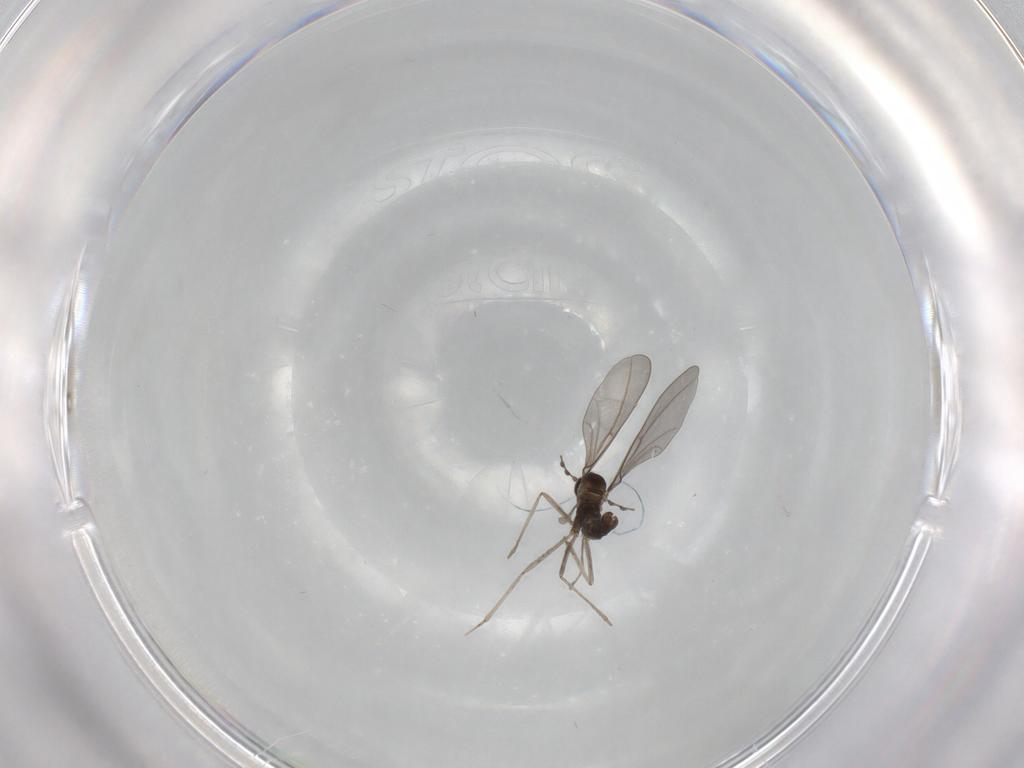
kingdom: Animalia
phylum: Arthropoda
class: Insecta
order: Diptera
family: Cecidomyiidae
